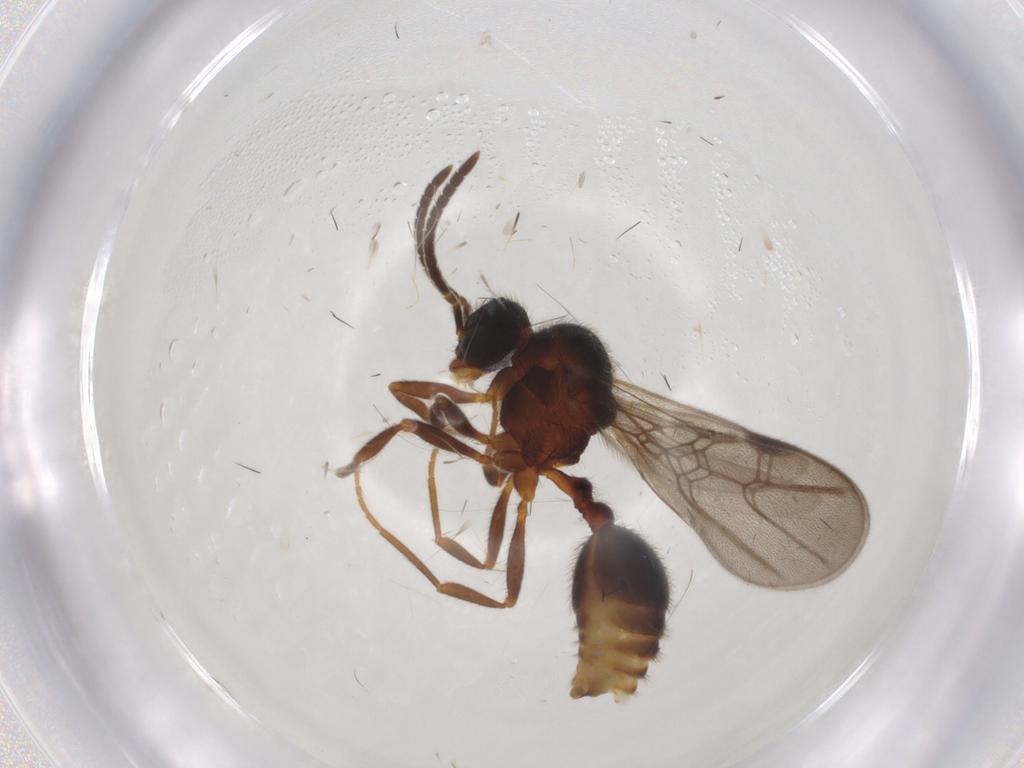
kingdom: Animalia
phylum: Arthropoda
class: Insecta
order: Hymenoptera
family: Formicidae
